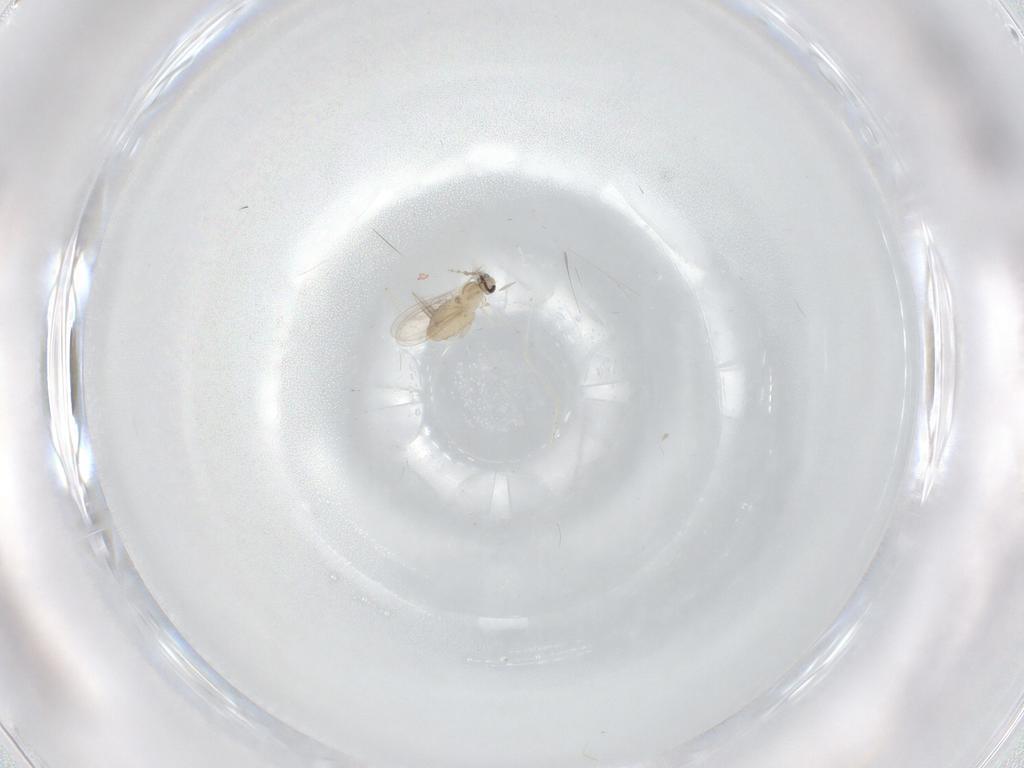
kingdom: Animalia
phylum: Arthropoda
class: Insecta
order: Diptera
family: Cecidomyiidae
